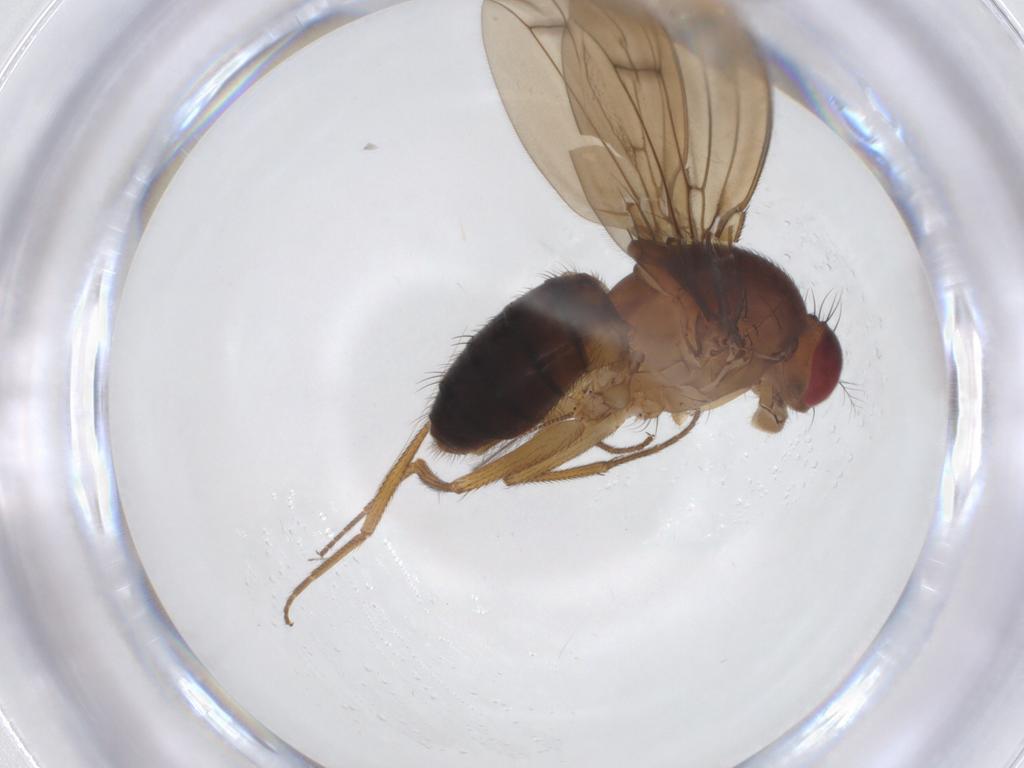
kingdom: Animalia
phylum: Arthropoda
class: Insecta
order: Diptera
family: Drosophilidae
